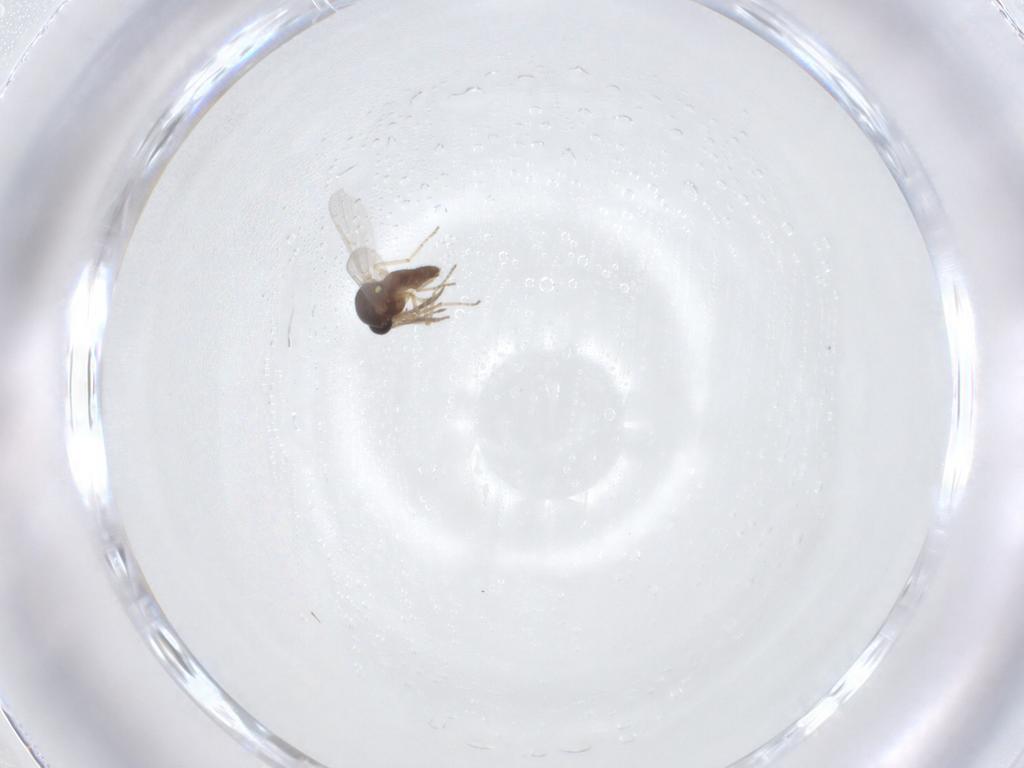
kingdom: Animalia
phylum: Arthropoda
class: Insecta
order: Diptera
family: Ceratopogonidae
